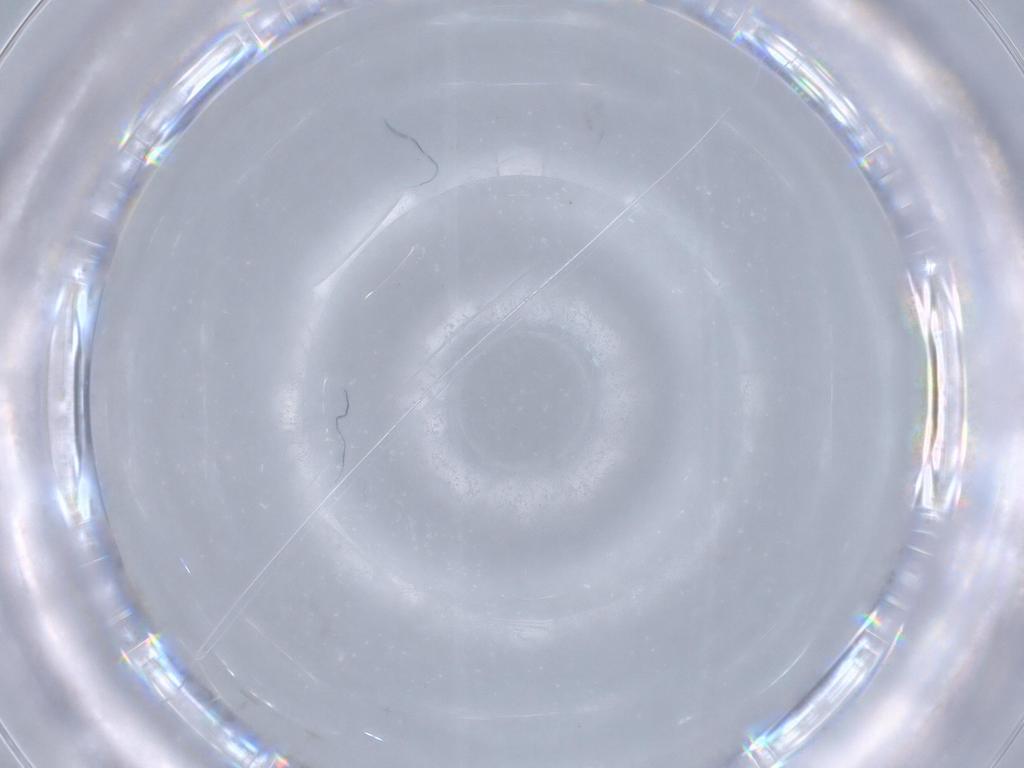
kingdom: Animalia
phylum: Arthropoda
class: Insecta
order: Diptera
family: Cecidomyiidae
